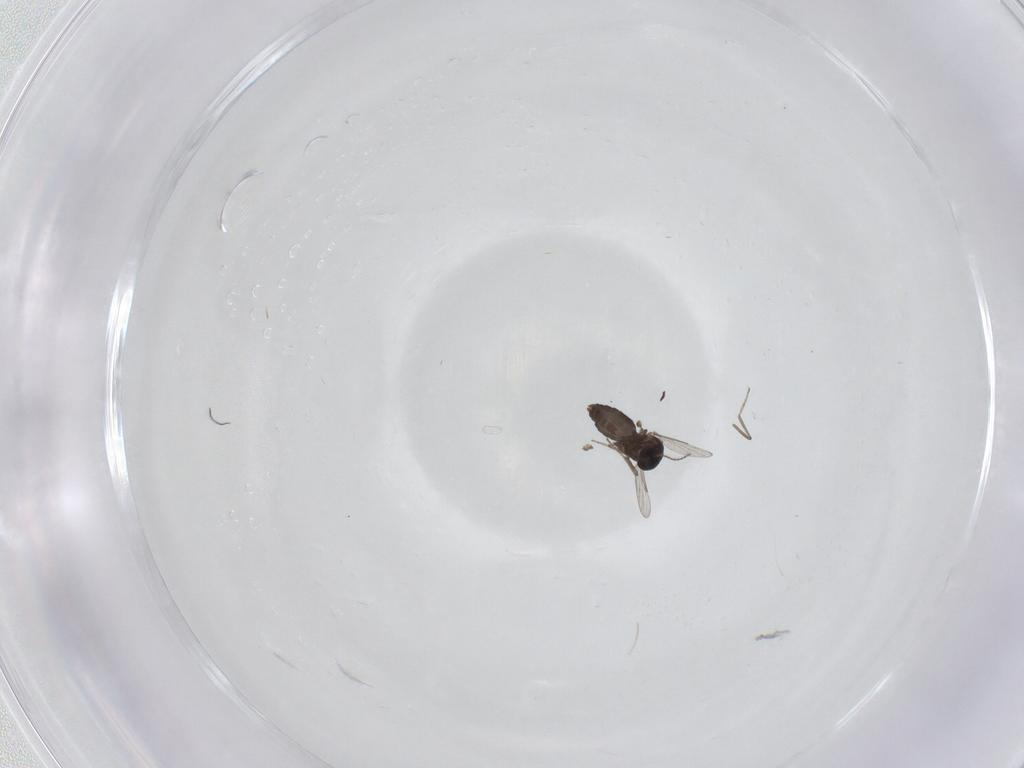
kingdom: Animalia
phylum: Arthropoda
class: Insecta
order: Diptera
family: Ceratopogonidae
